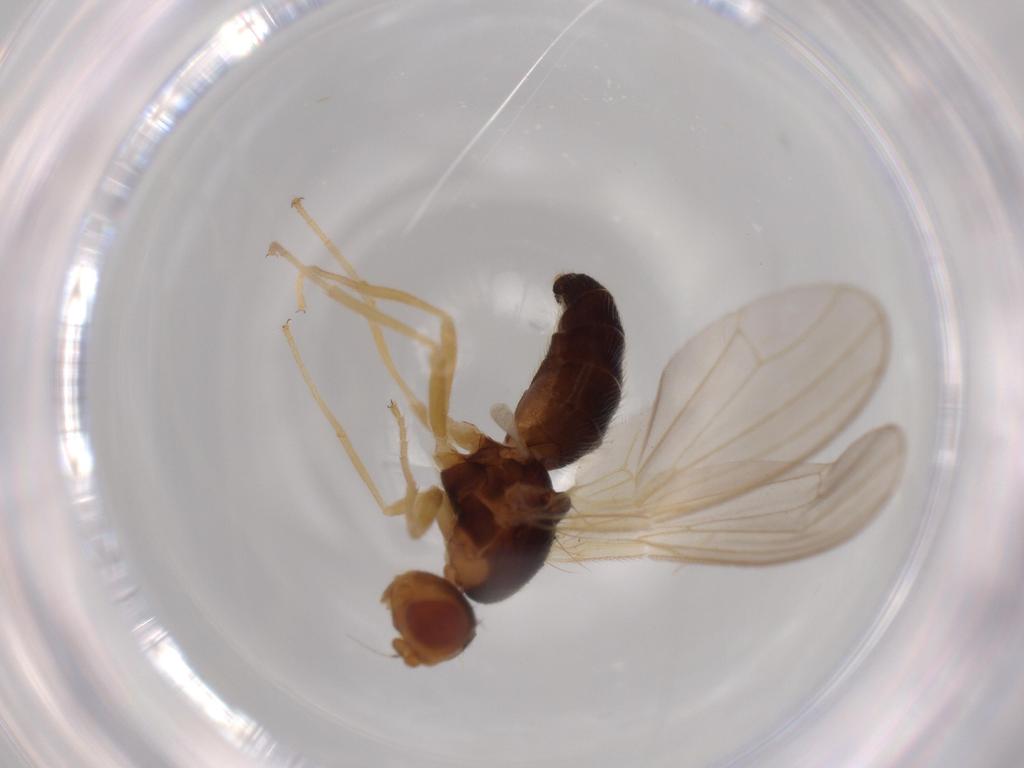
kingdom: Animalia
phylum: Arthropoda
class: Insecta
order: Diptera
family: Psilidae
